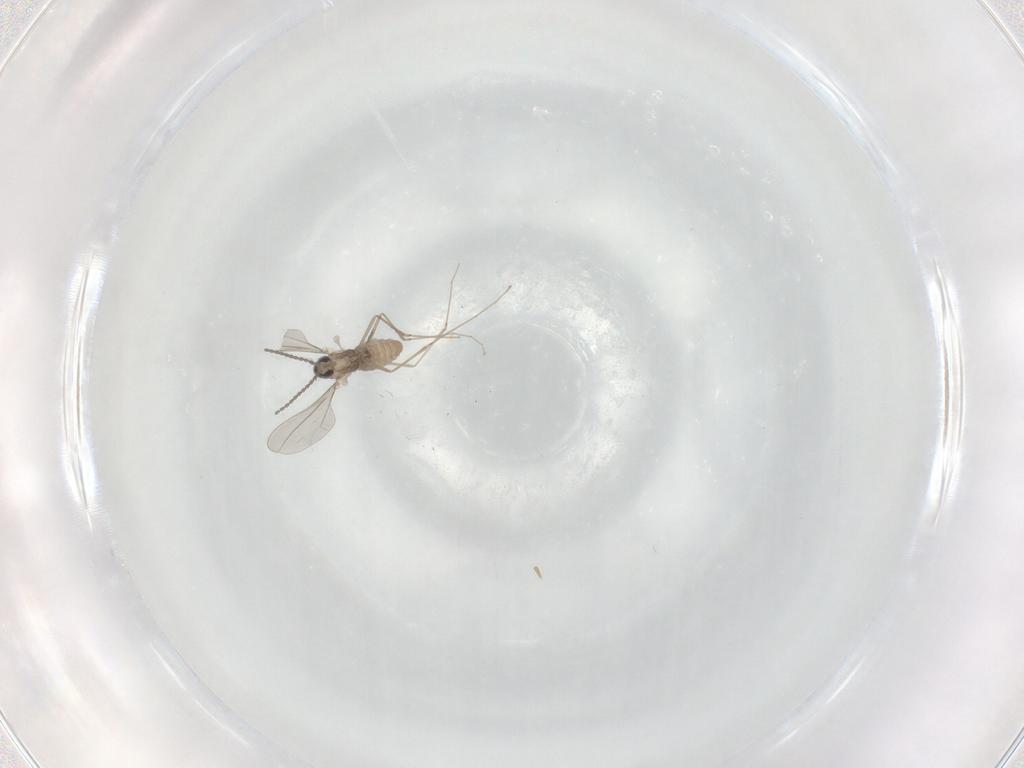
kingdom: Animalia
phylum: Arthropoda
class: Insecta
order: Diptera
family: Cecidomyiidae
